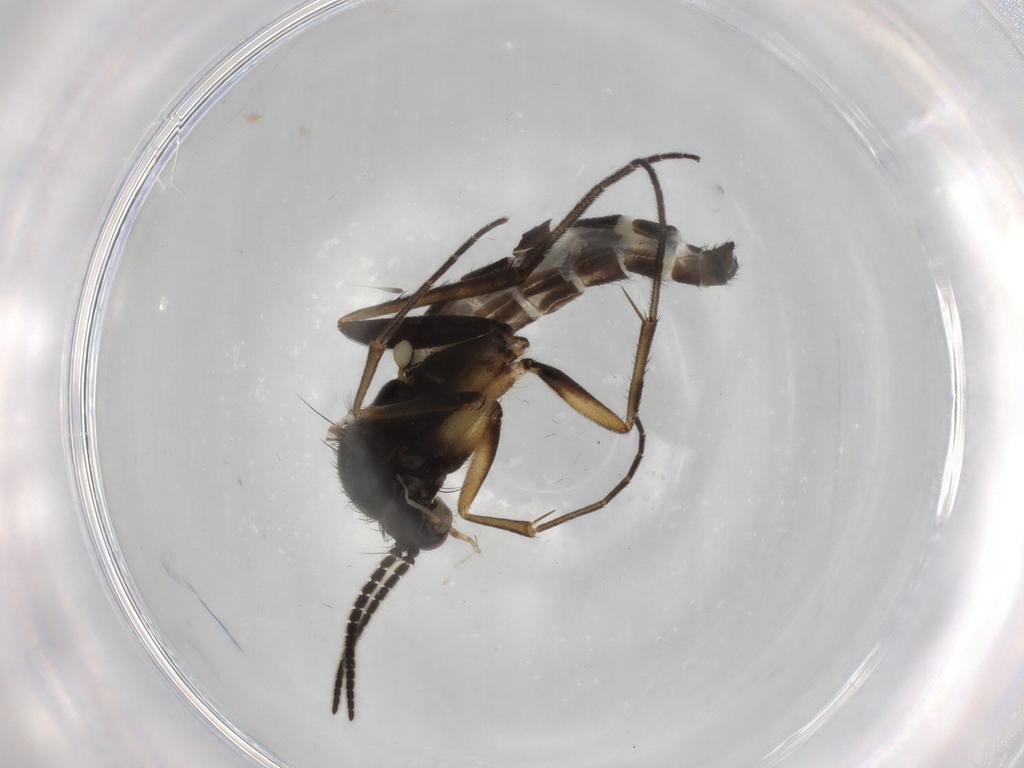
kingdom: Animalia
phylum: Arthropoda
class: Insecta
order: Diptera
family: Mycetophilidae
